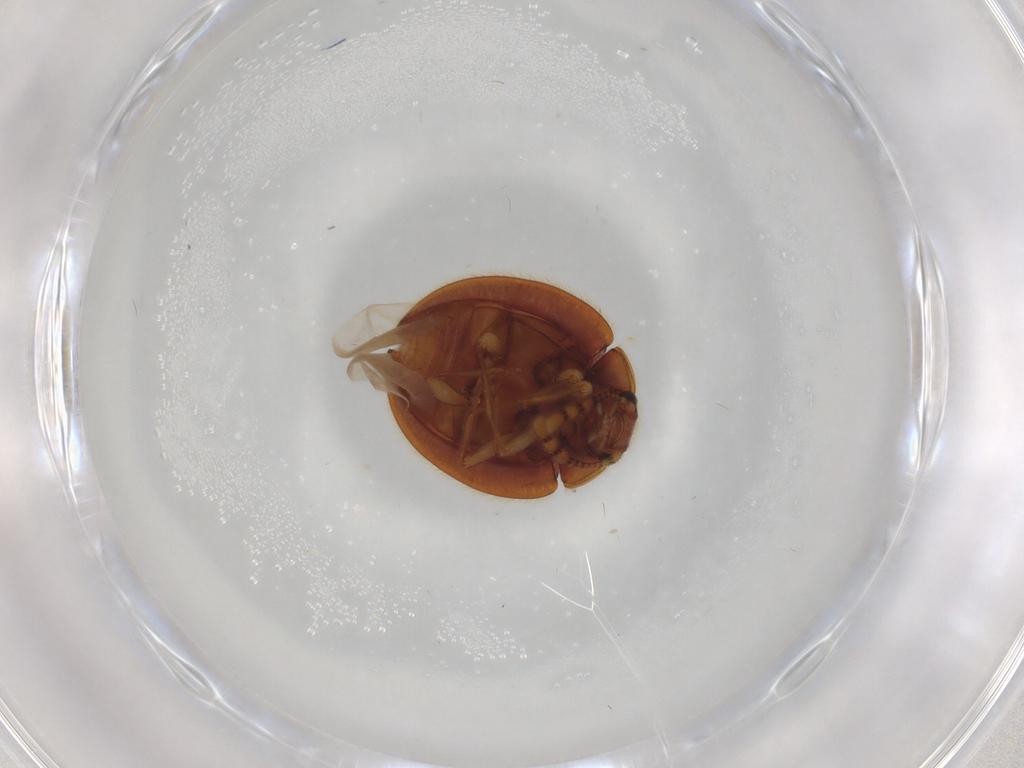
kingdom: Animalia
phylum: Arthropoda
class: Insecta
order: Coleoptera
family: Anamorphidae
